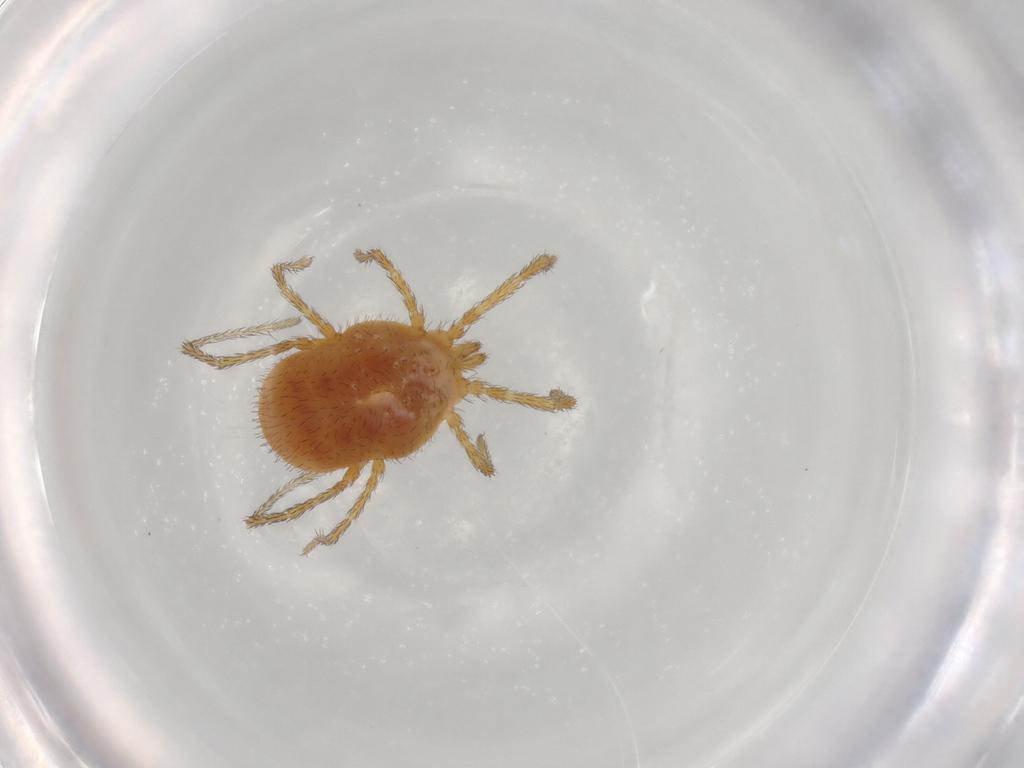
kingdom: Animalia
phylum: Arthropoda
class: Arachnida
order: Trombidiformes
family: Erythraeidae
